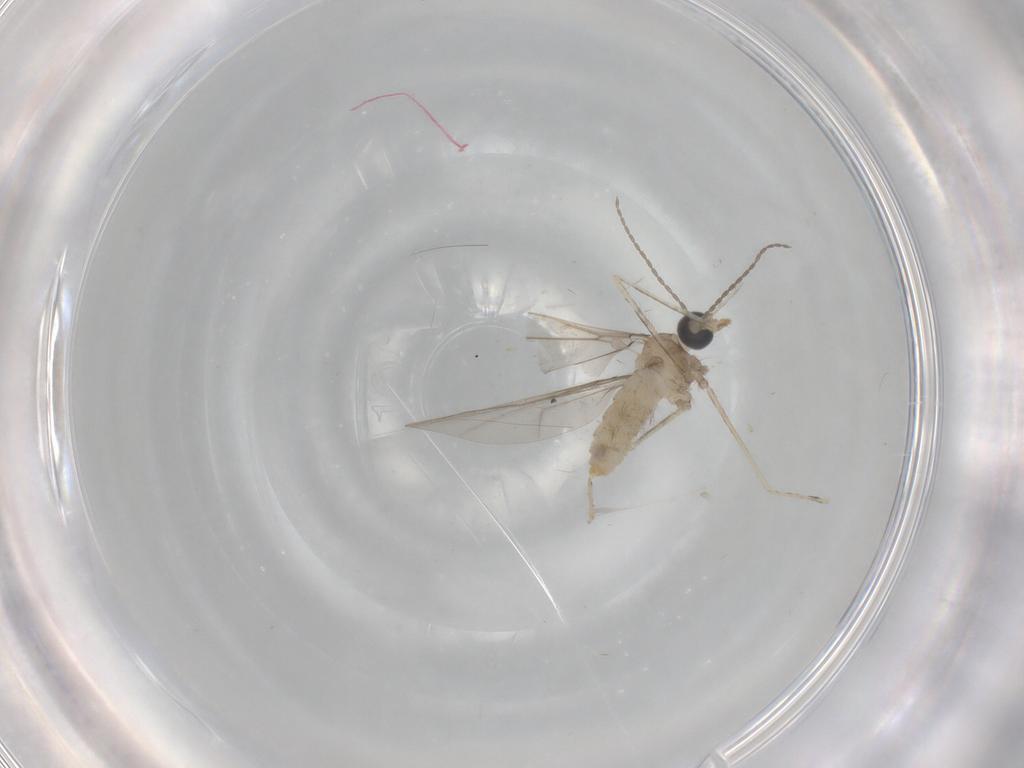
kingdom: Animalia
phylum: Arthropoda
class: Insecta
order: Diptera
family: Cecidomyiidae
